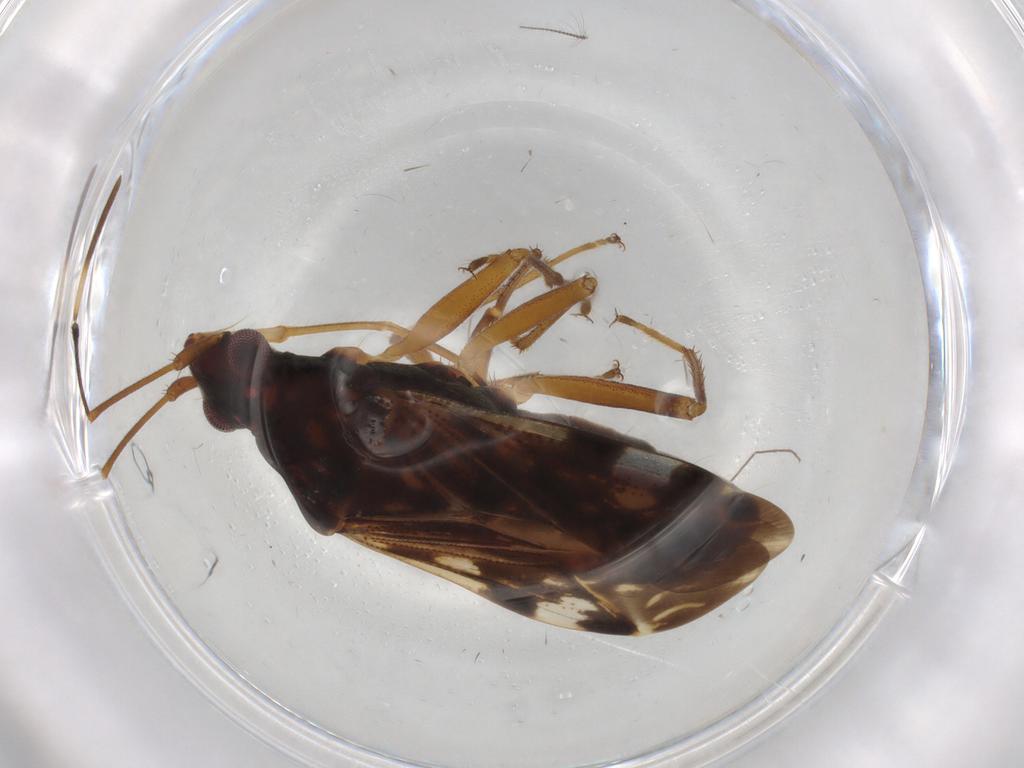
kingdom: Animalia
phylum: Arthropoda
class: Insecta
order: Hemiptera
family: Rhyparochromidae
